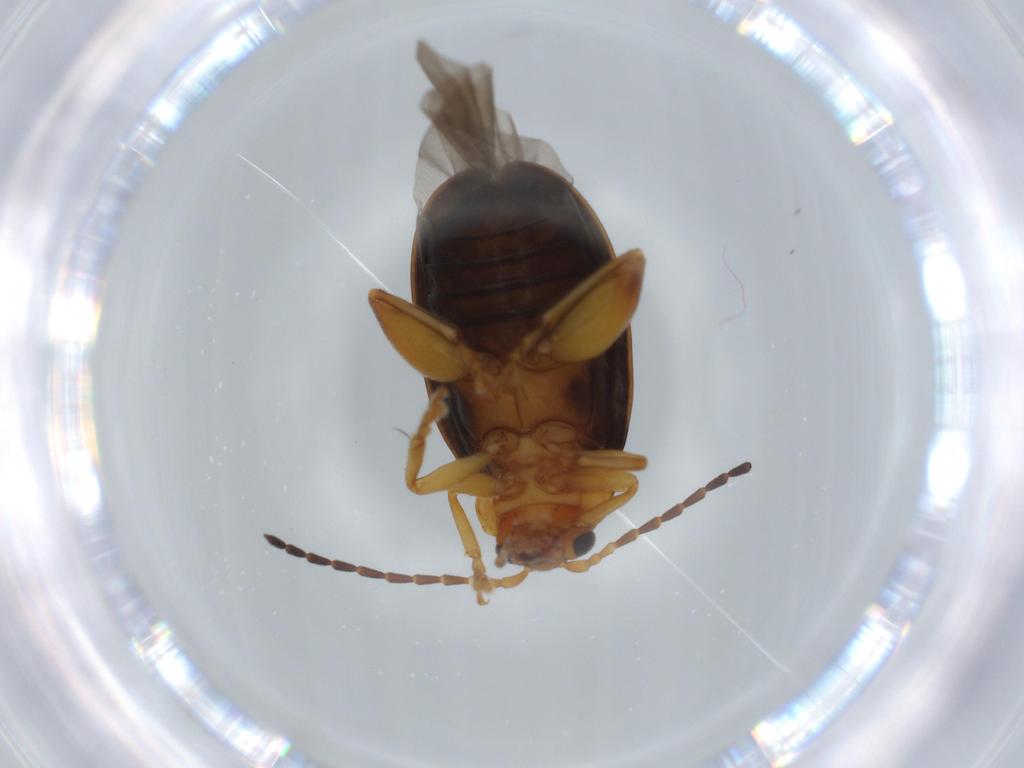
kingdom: Animalia
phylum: Arthropoda
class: Insecta
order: Coleoptera
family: Chrysomelidae
